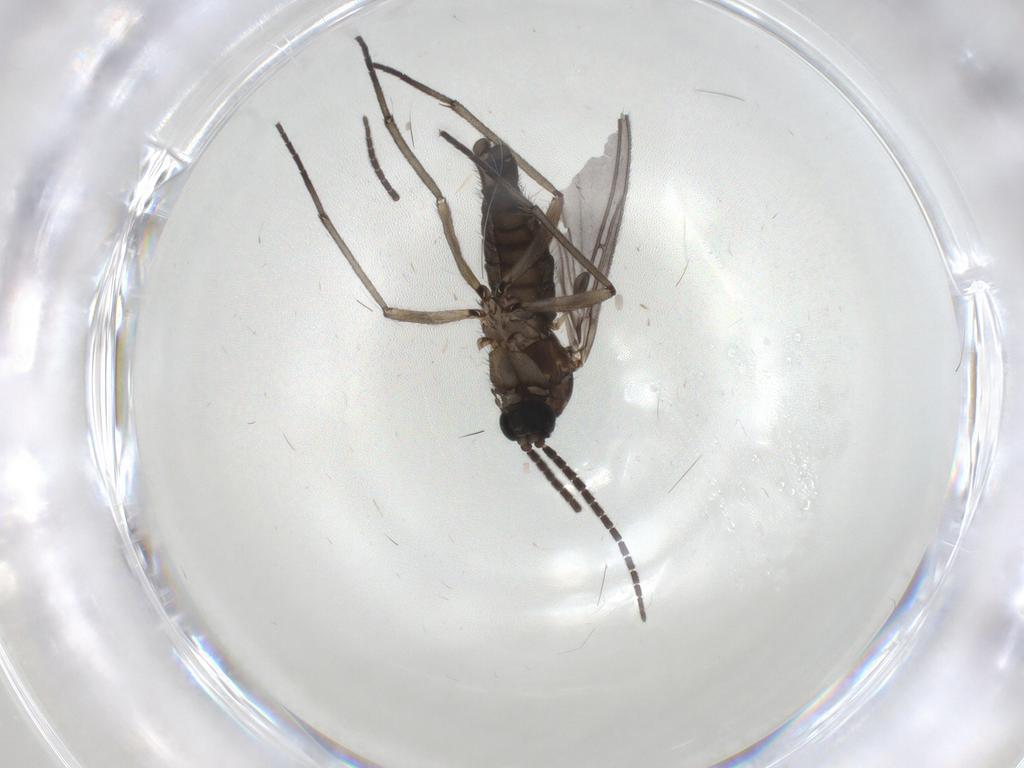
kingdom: Animalia
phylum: Arthropoda
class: Insecta
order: Diptera
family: Sciaridae
